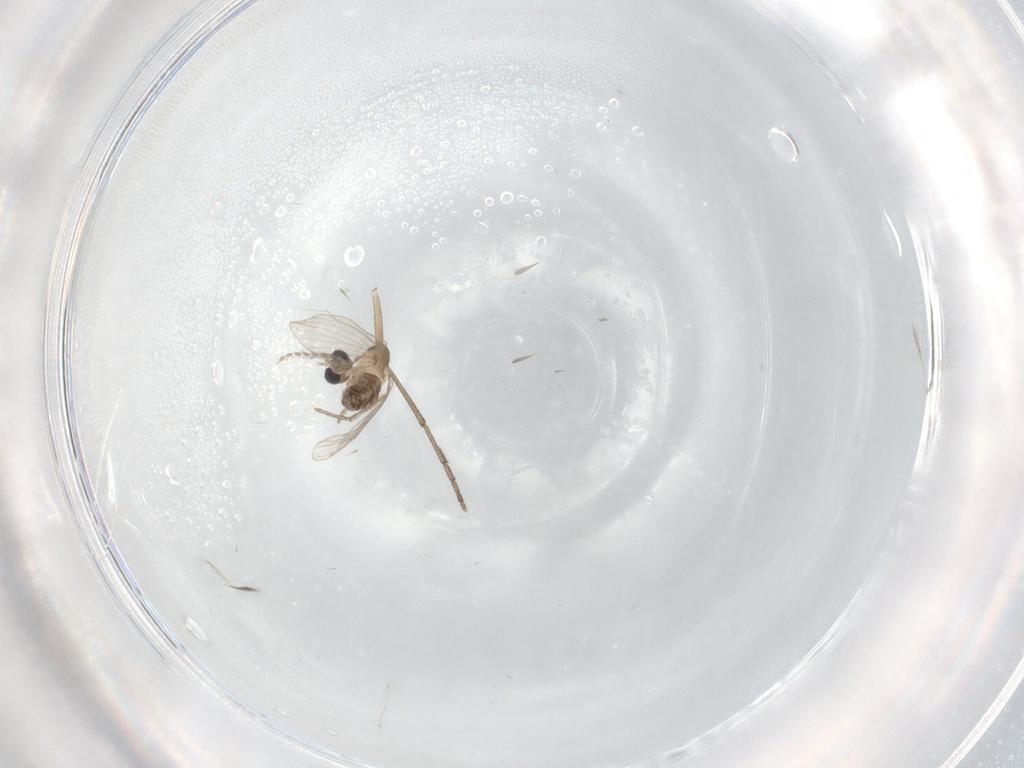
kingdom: Animalia
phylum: Arthropoda
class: Insecta
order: Diptera
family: Psychodidae
